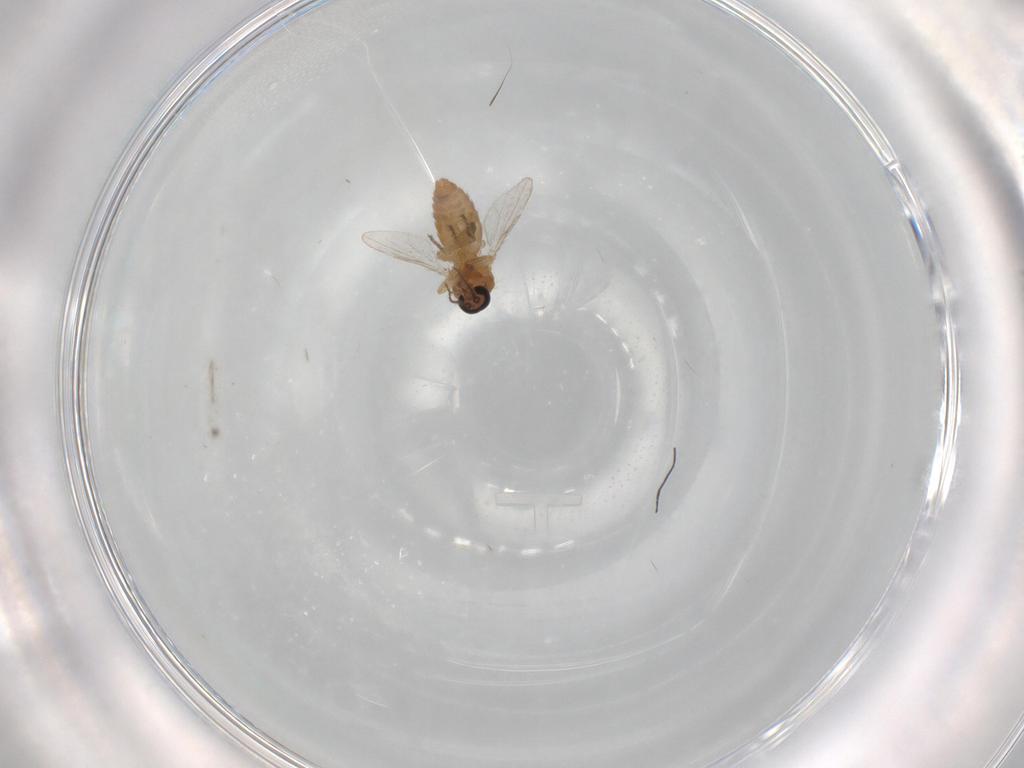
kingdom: Animalia
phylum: Arthropoda
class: Insecta
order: Diptera
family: Ceratopogonidae
